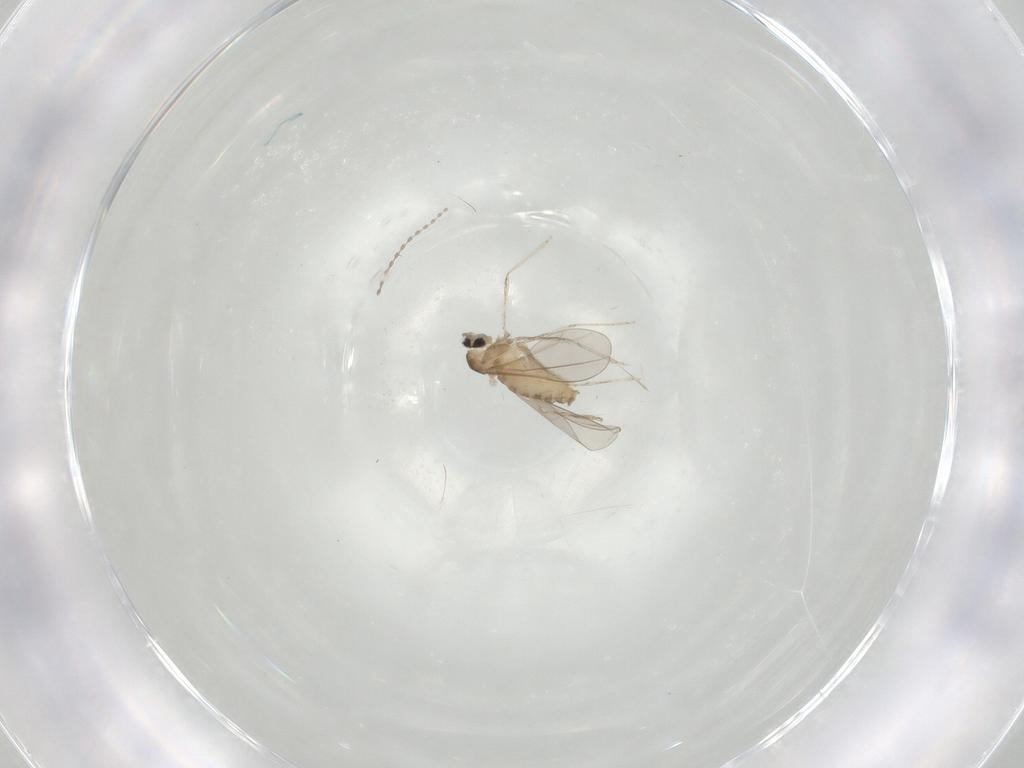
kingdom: Animalia
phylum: Arthropoda
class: Insecta
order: Diptera
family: Cecidomyiidae
